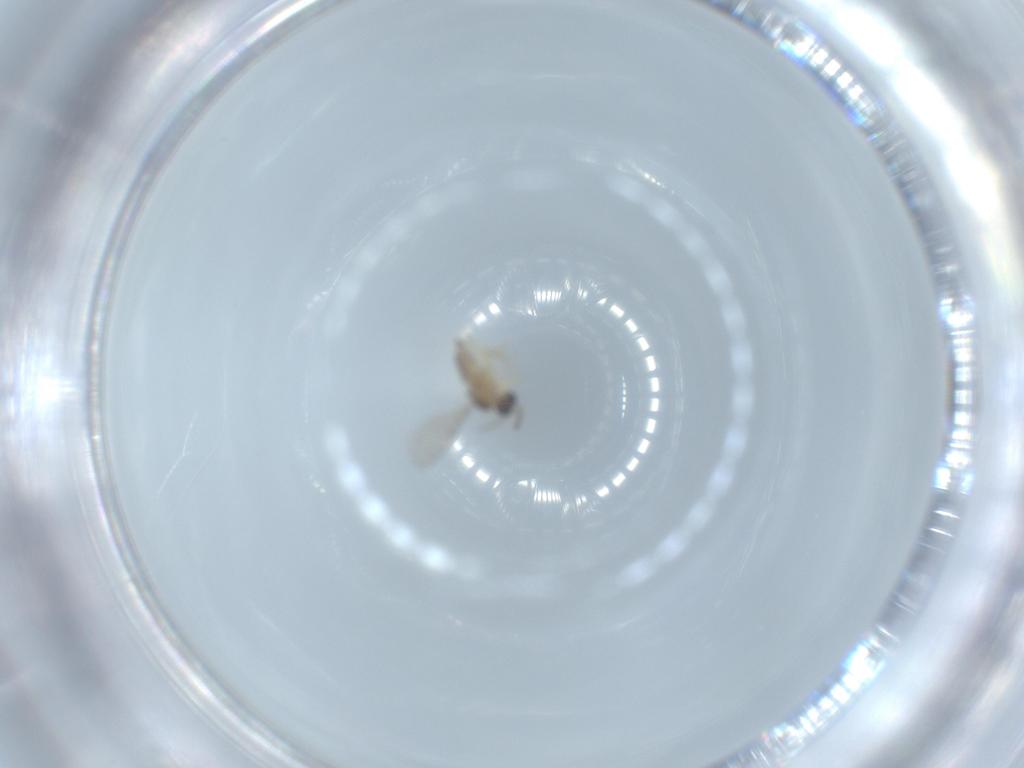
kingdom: Animalia
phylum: Arthropoda
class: Insecta
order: Diptera
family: Cecidomyiidae
